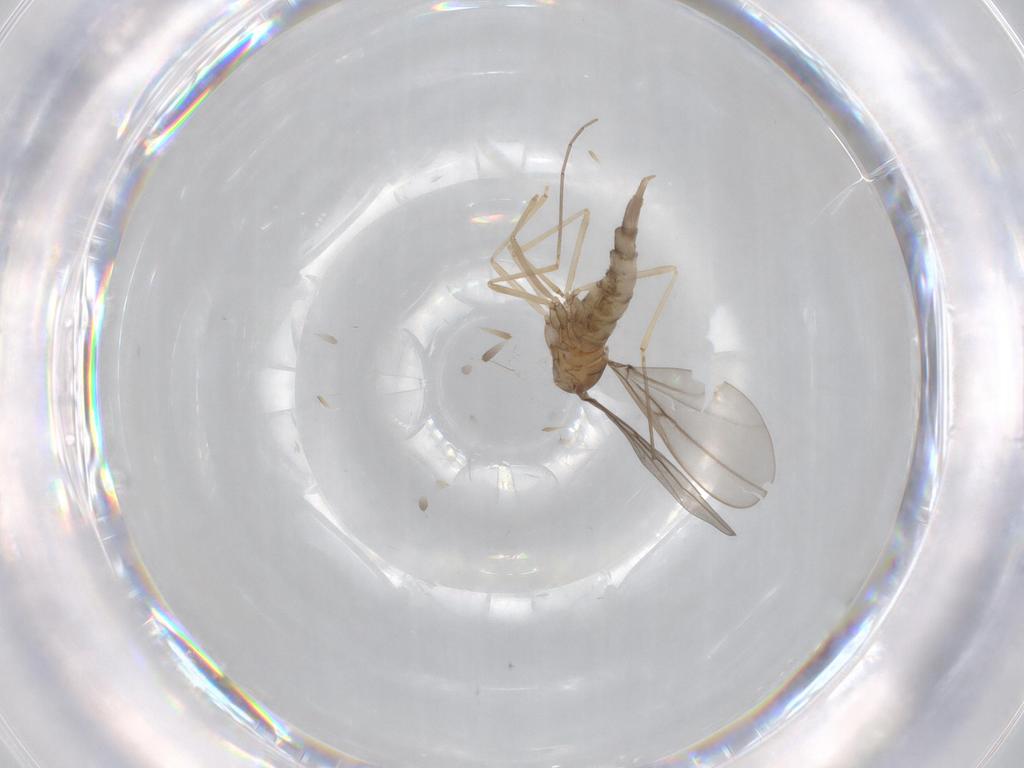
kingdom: Animalia
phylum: Arthropoda
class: Insecta
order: Diptera
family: Cecidomyiidae
